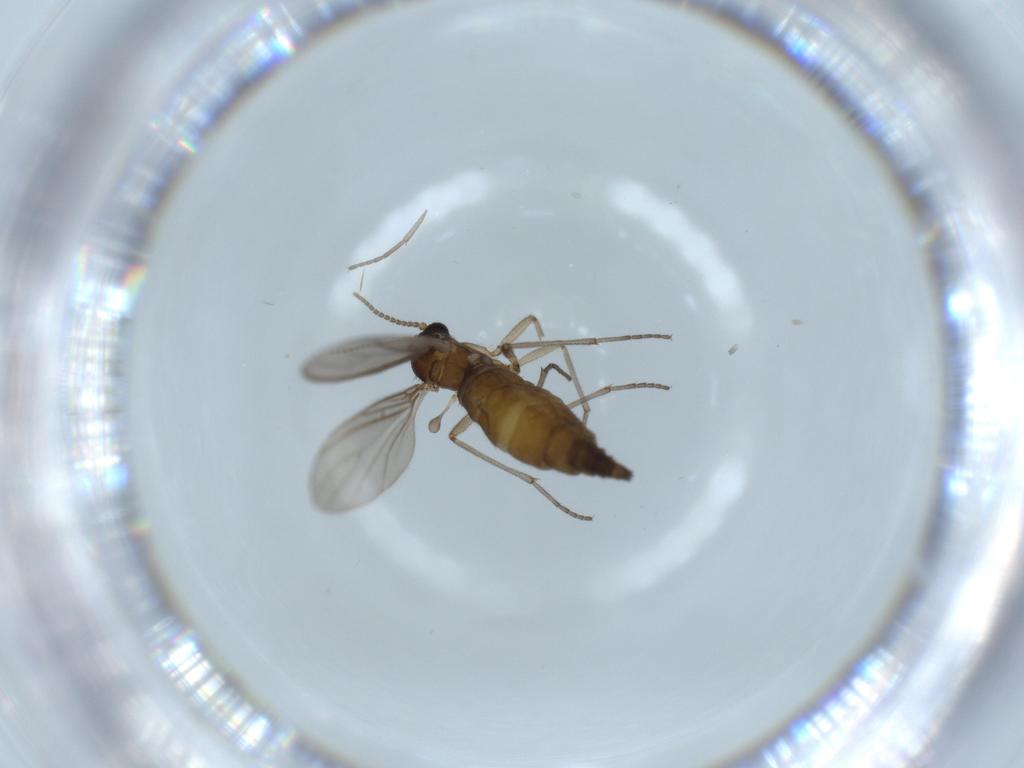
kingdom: Animalia
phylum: Arthropoda
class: Insecta
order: Diptera
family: Sciaridae
